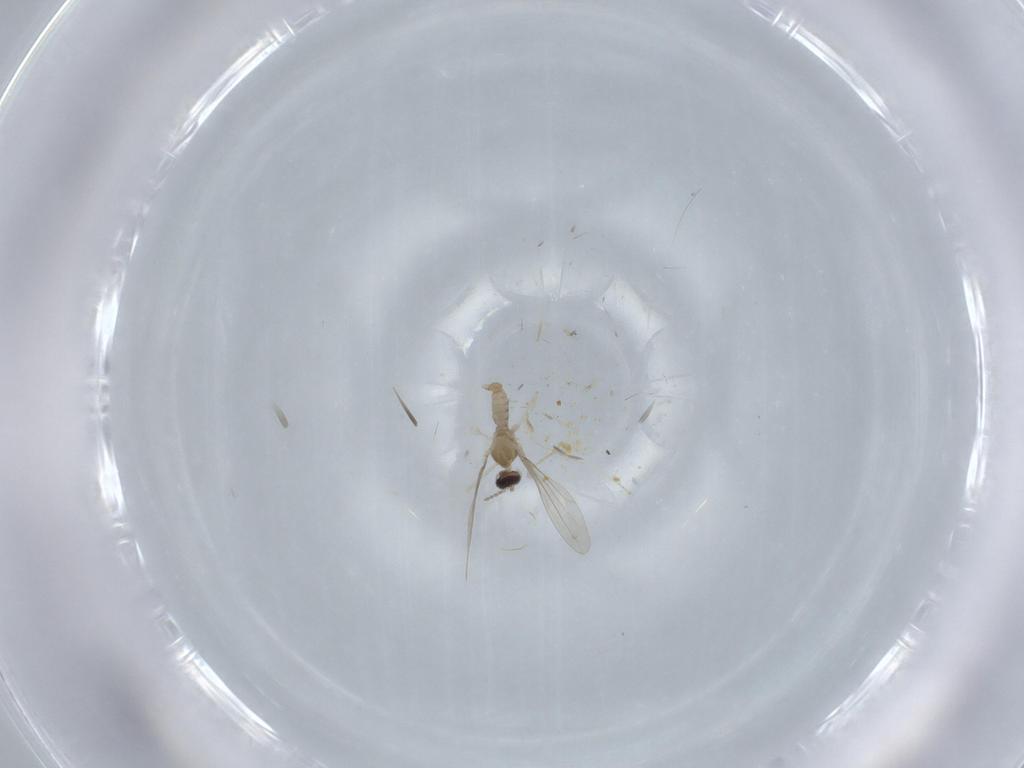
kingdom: Animalia
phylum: Arthropoda
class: Insecta
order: Diptera
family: Cecidomyiidae
